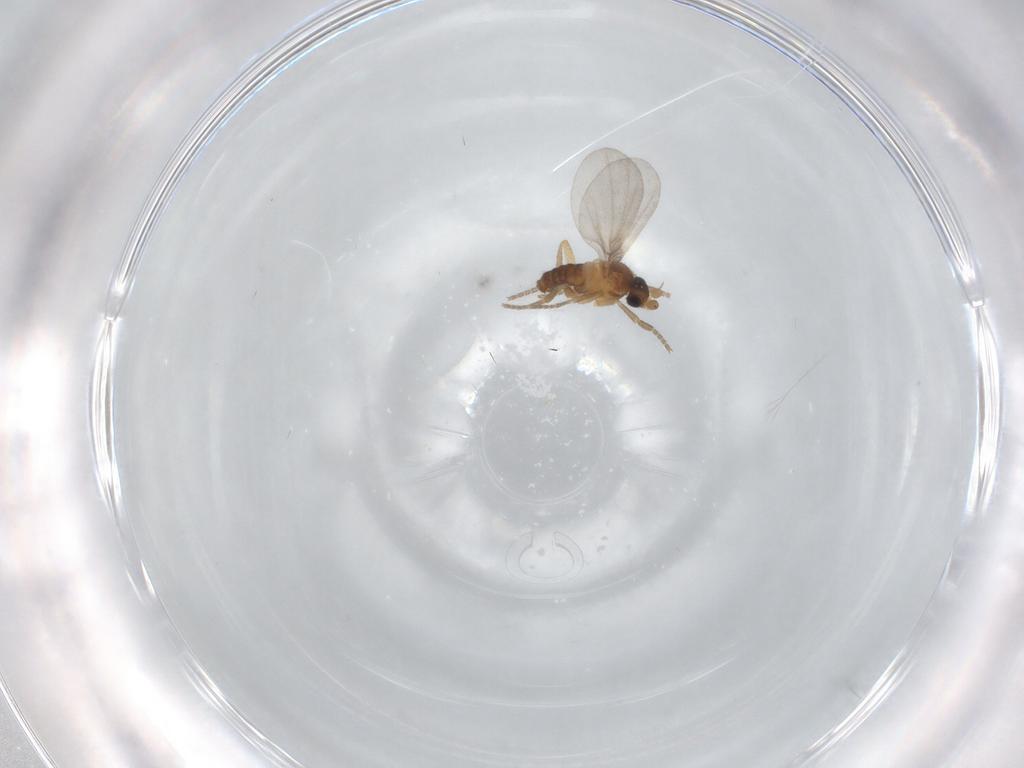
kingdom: Animalia
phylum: Arthropoda
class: Insecta
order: Diptera
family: Phoridae
